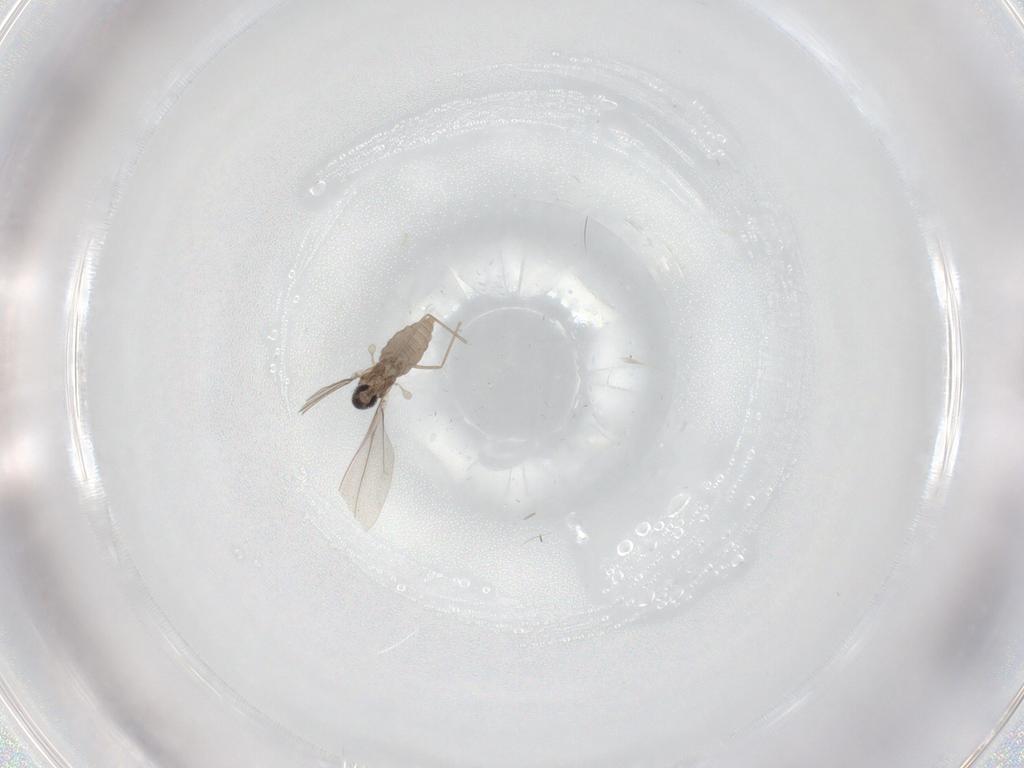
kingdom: Animalia
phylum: Arthropoda
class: Insecta
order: Diptera
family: Cecidomyiidae
